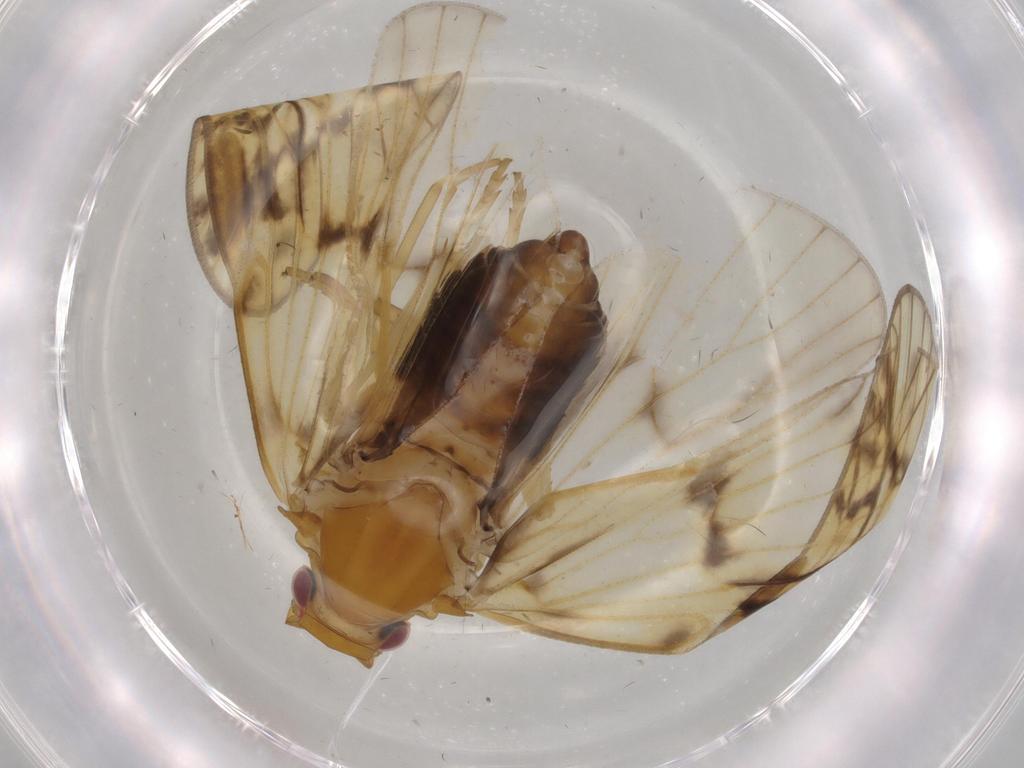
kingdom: Animalia
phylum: Arthropoda
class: Insecta
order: Hemiptera
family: Cixiidae
